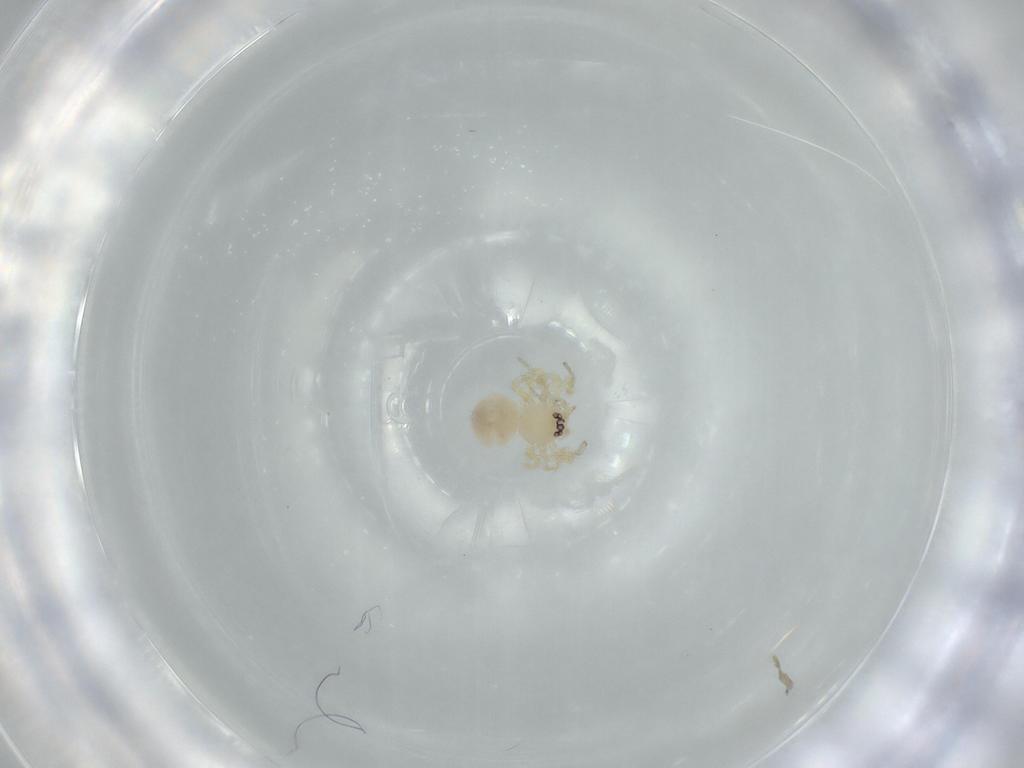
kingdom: Animalia
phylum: Arthropoda
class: Arachnida
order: Araneae
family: Oonopidae
